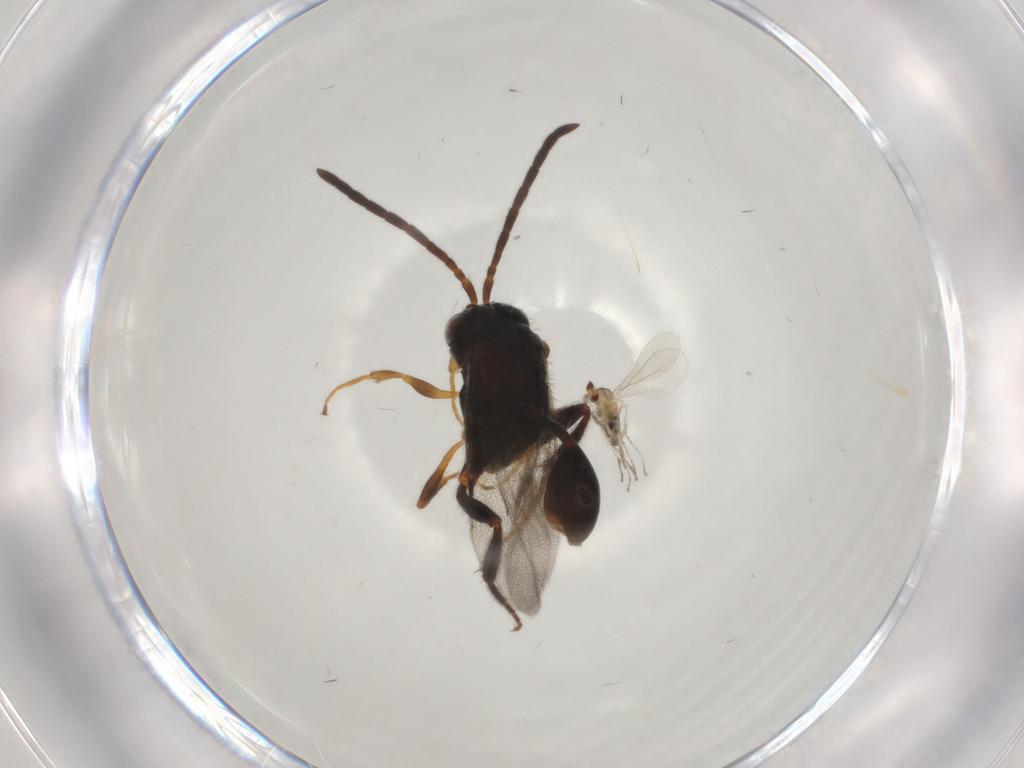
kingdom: Animalia
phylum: Arthropoda
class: Insecta
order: Diptera
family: Cecidomyiidae
